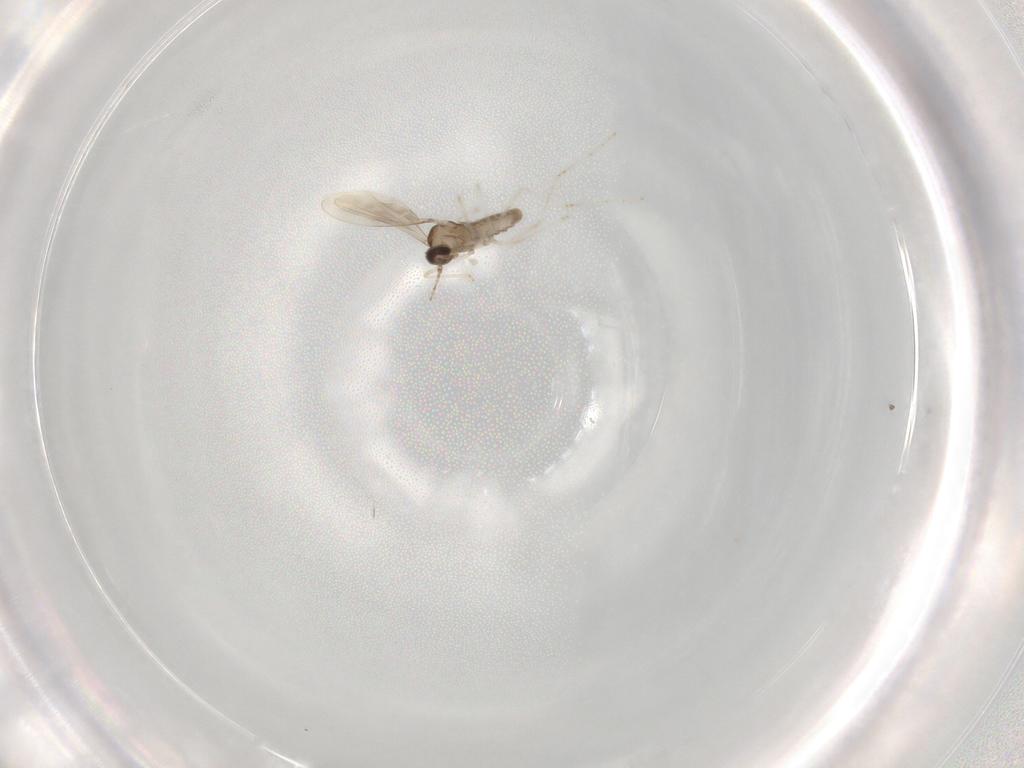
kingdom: Animalia
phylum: Arthropoda
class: Insecta
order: Diptera
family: Cecidomyiidae
